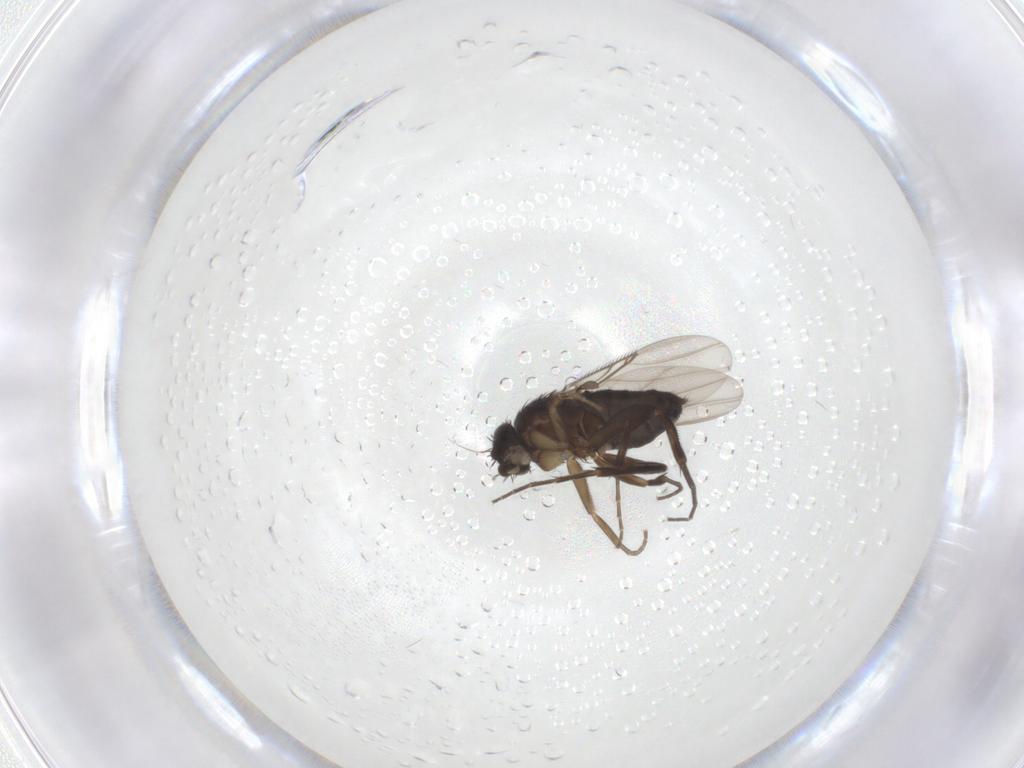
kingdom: Animalia
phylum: Arthropoda
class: Insecta
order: Diptera
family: Phoridae
